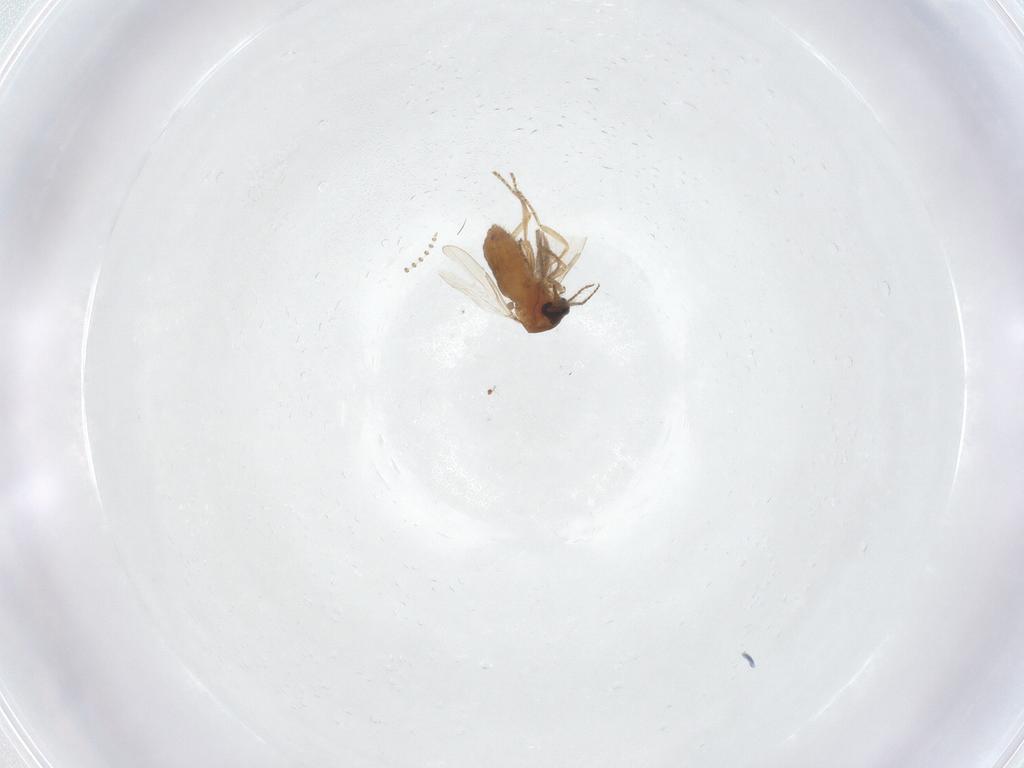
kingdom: Animalia
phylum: Arthropoda
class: Insecta
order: Diptera
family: Ceratopogonidae
